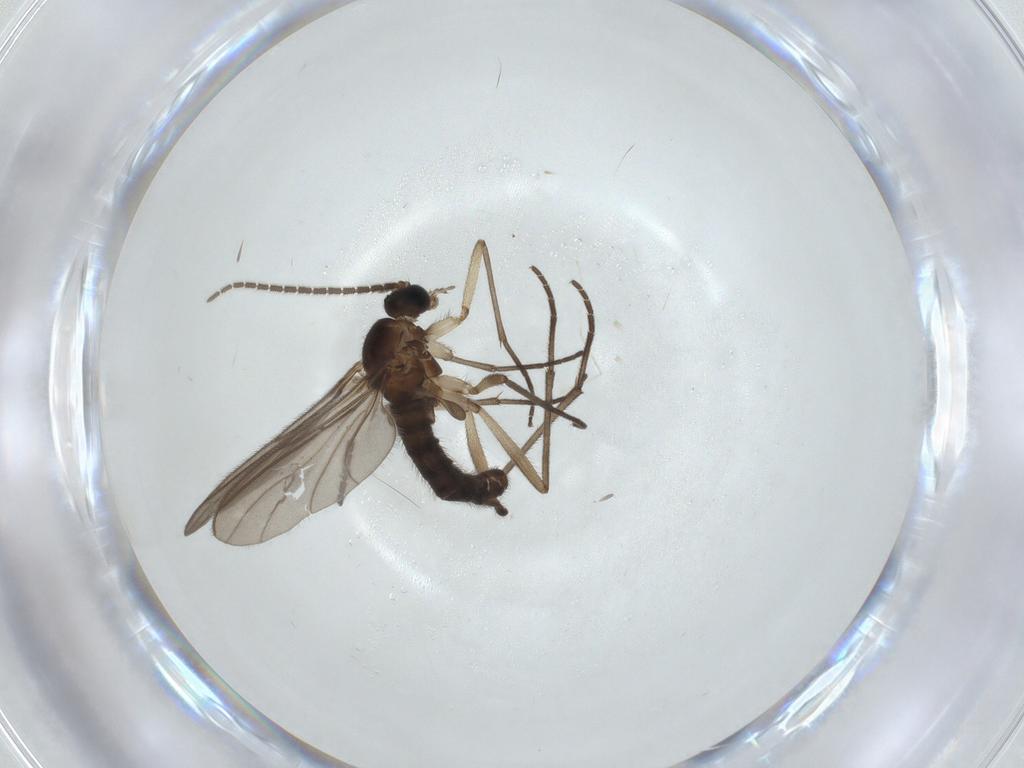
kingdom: Animalia
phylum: Arthropoda
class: Insecta
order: Diptera
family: Sciaridae
